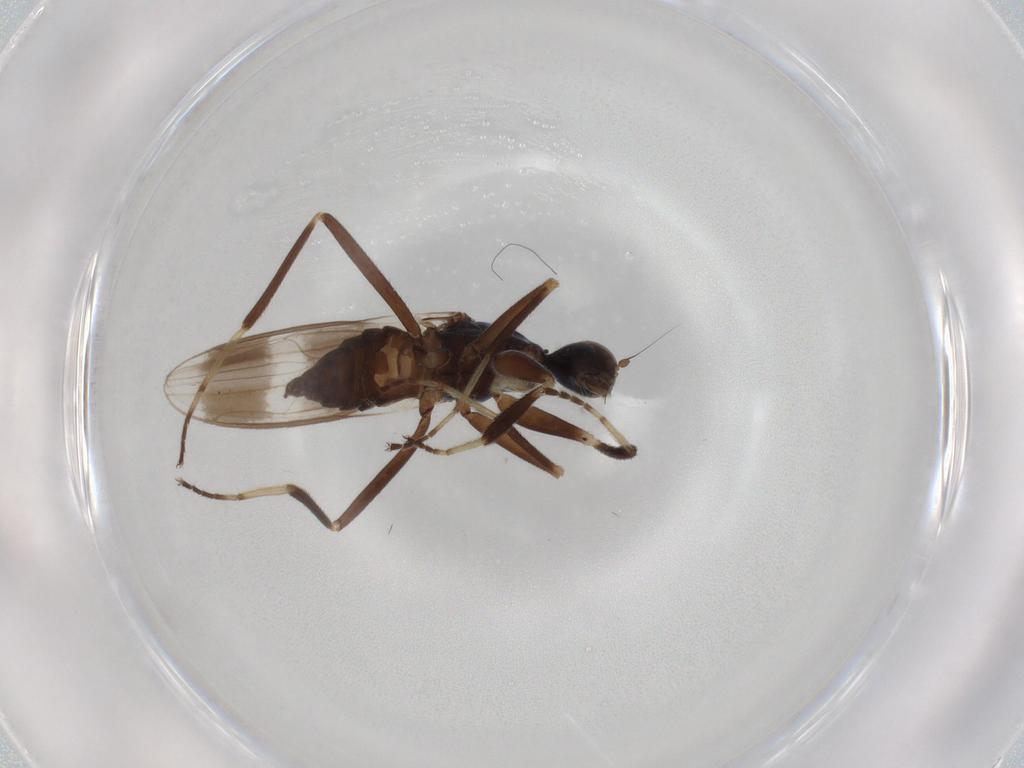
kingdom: Animalia
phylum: Arthropoda
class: Insecta
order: Diptera
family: Hybotidae
